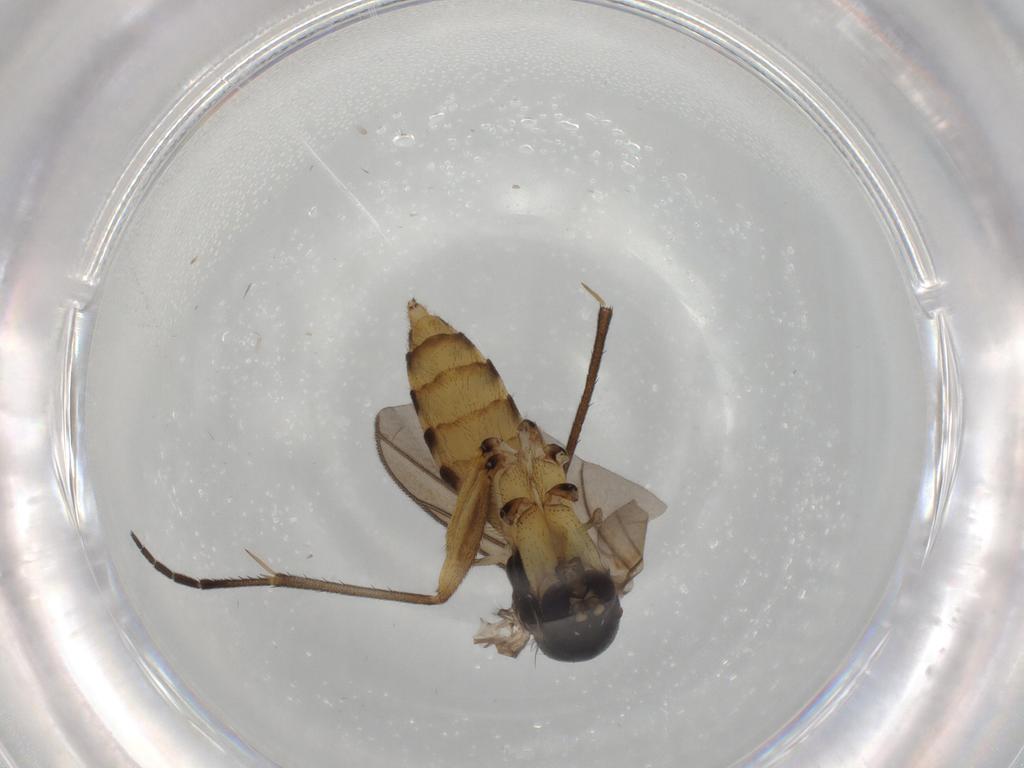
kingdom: Animalia
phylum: Arthropoda
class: Insecta
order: Diptera
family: Mycetophilidae
